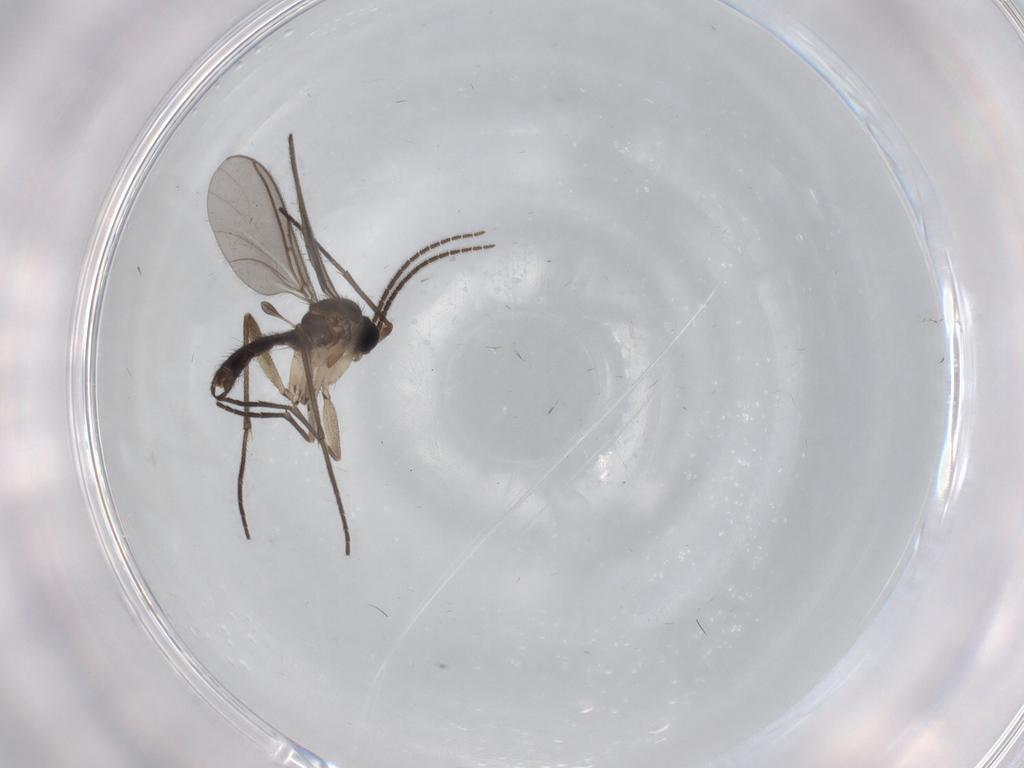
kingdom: Animalia
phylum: Arthropoda
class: Insecta
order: Diptera
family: Sciaridae
